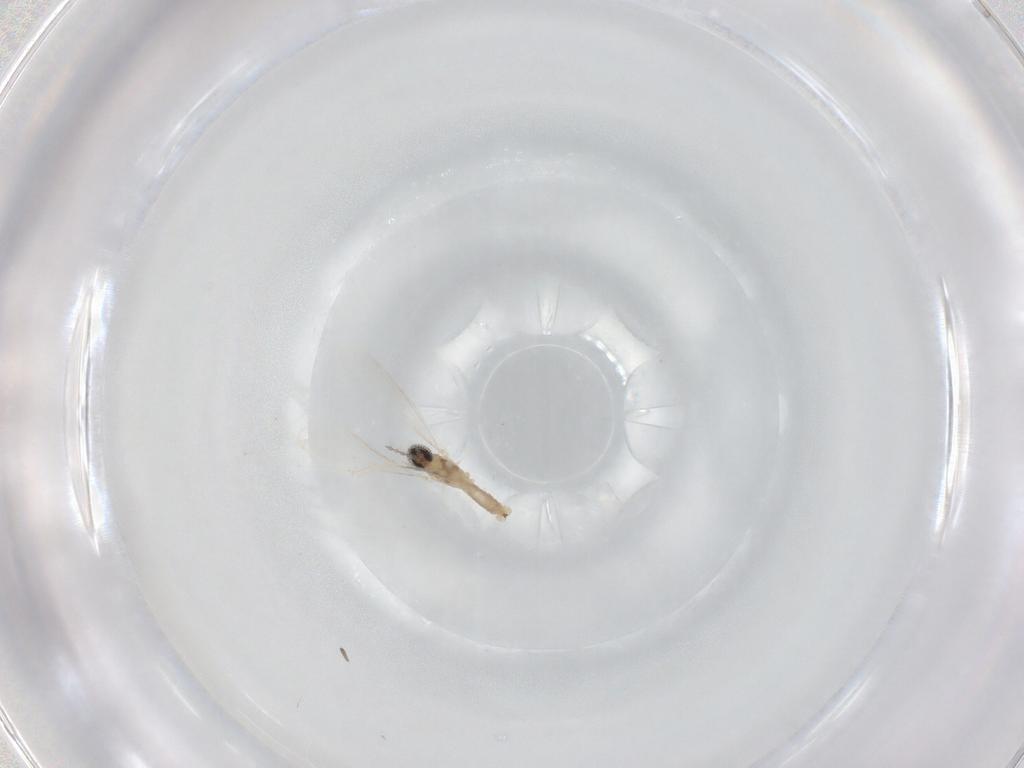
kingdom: Animalia
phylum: Arthropoda
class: Insecta
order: Diptera
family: Cecidomyiidae
